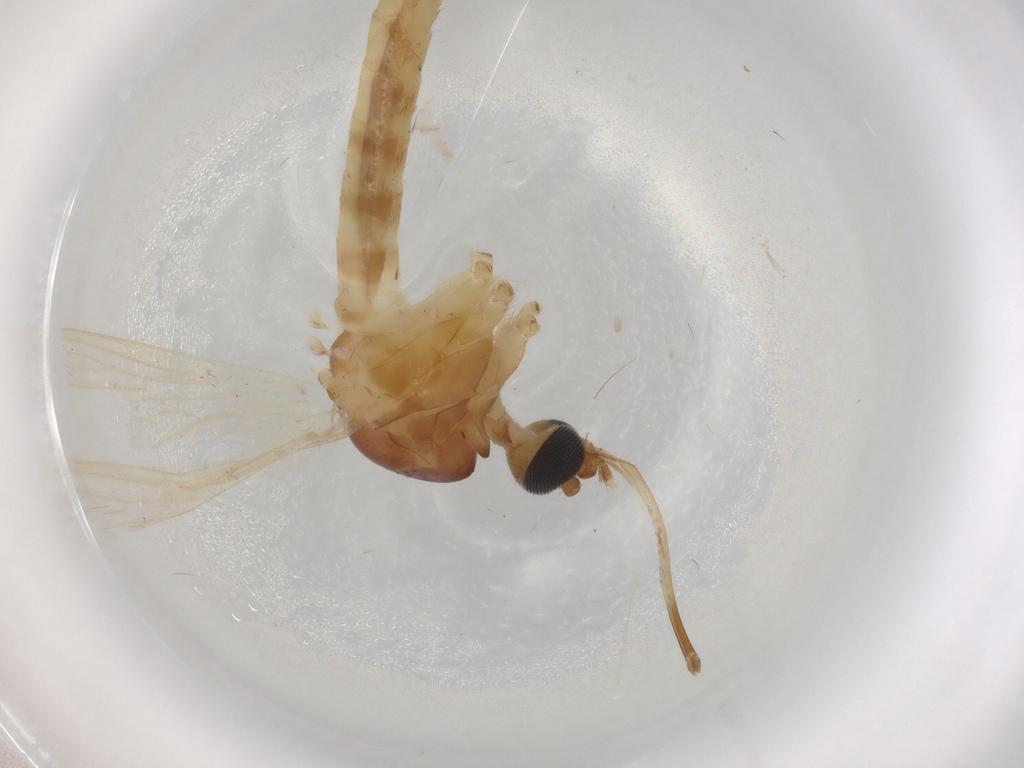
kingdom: Animalia
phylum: Arthropoda
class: Insecta
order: Diptera
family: Chloropidae
